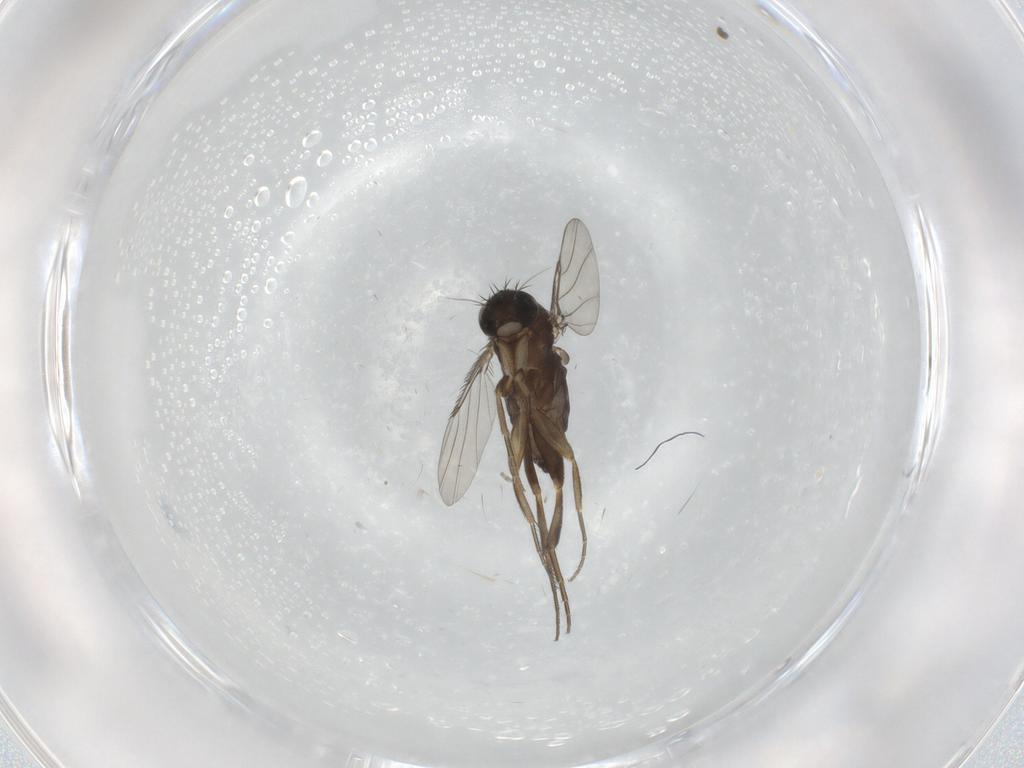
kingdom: Animalia
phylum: Arthropoda
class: Insecta
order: Diptera
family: Phoridae
